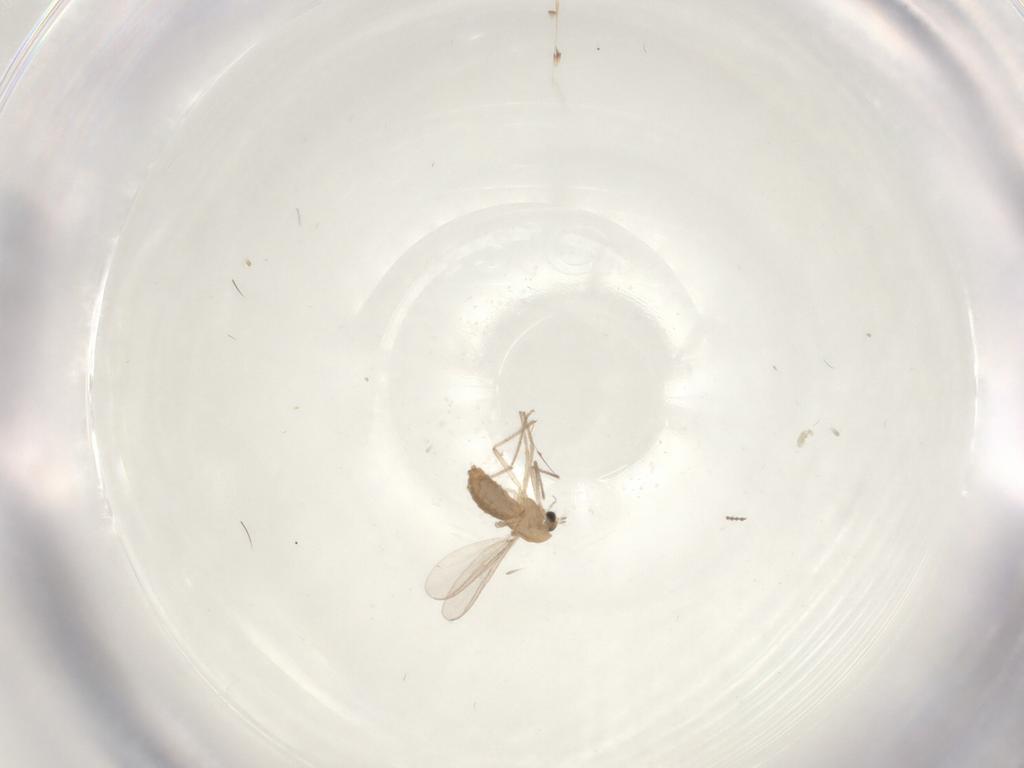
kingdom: Animalia
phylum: Arthropoda
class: Insecta
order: Diptera
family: Chironomidae
